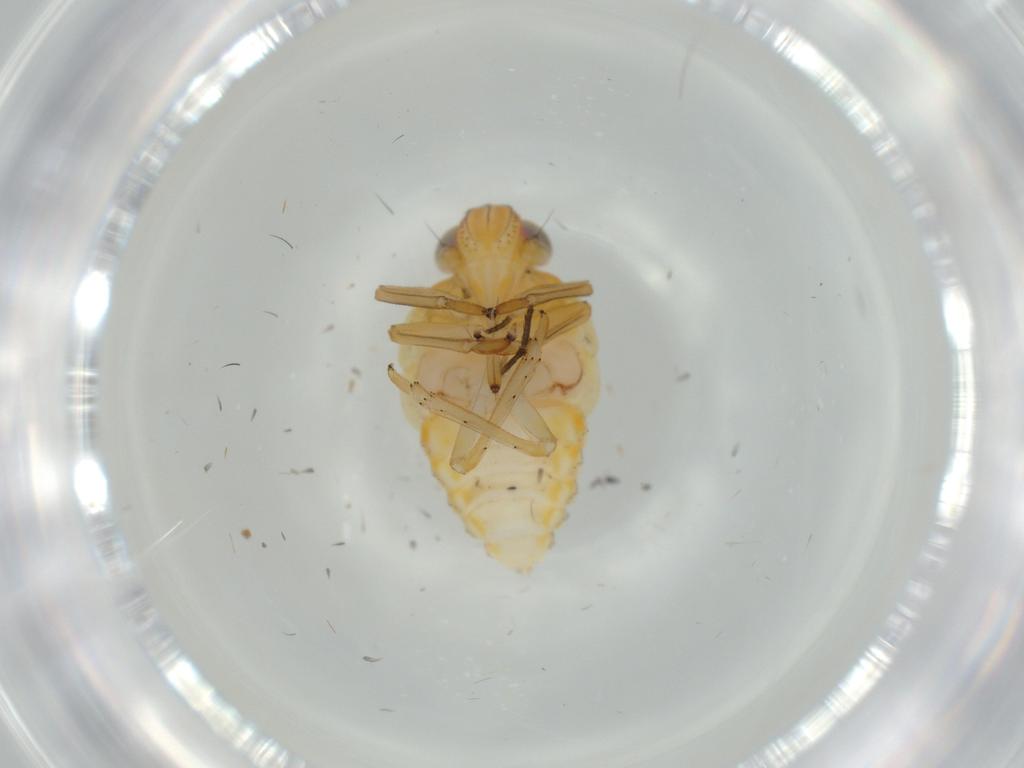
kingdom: Animalia
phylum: Arthropoda
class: Insecta
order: Hemiptera
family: Issidae
